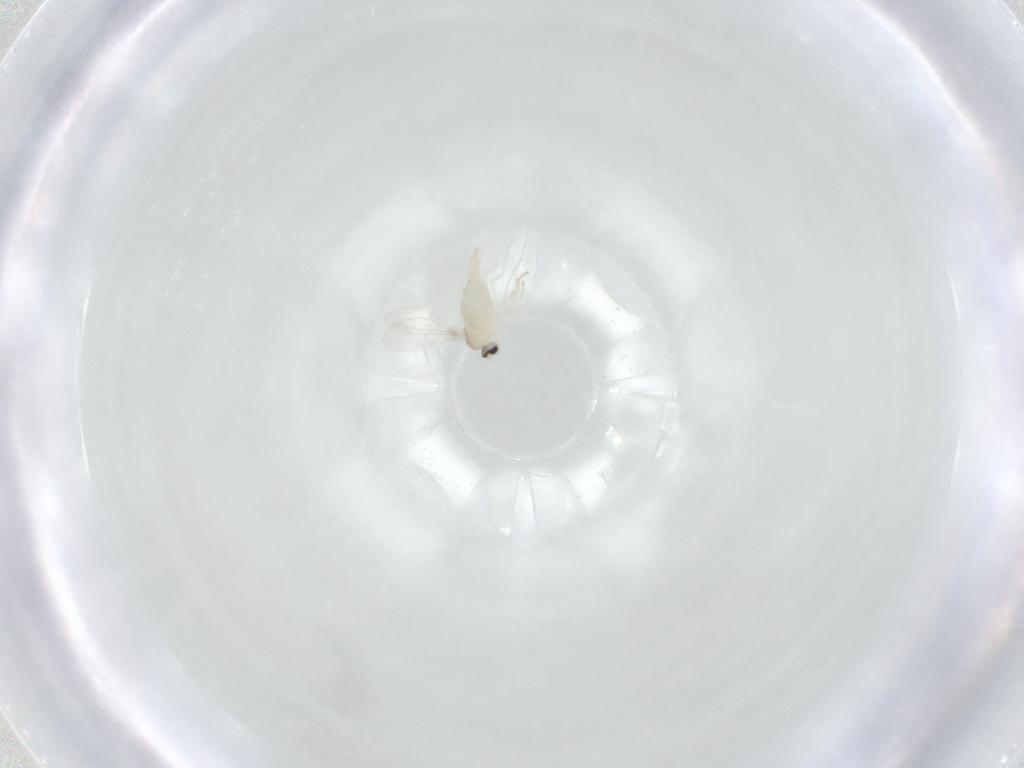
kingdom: Animalia
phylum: Arthropoda
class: Insecta
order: Diptera
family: Cecidomyiidae
